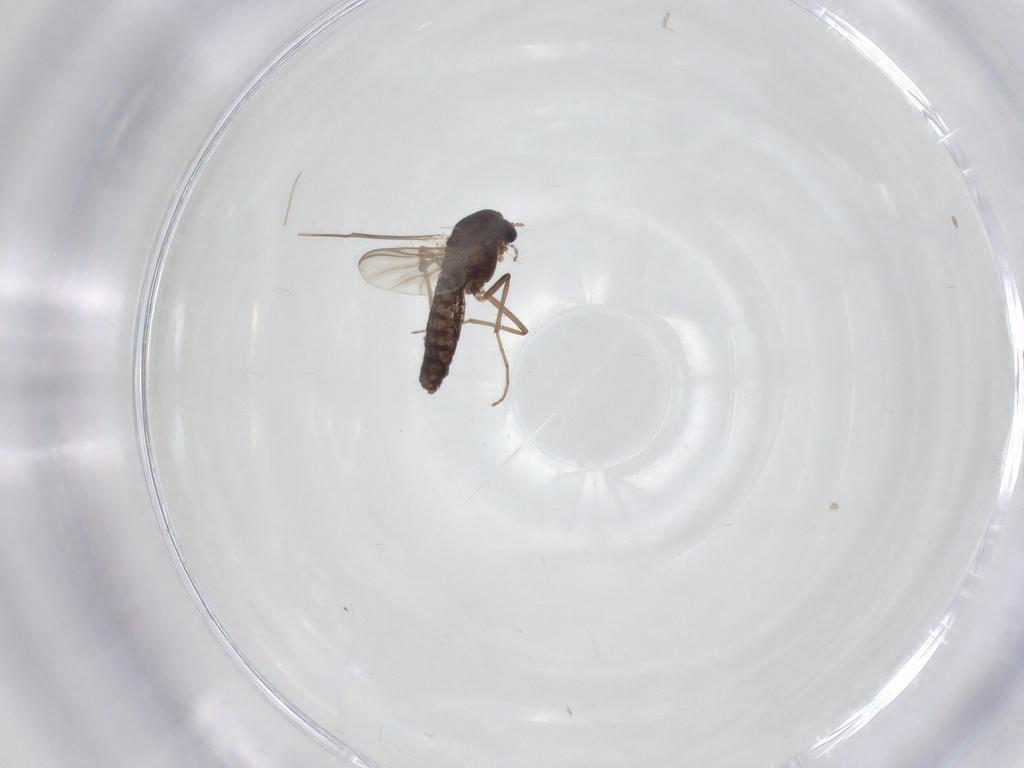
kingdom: Animalia
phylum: Arthropoda
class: Insecta
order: Diptera
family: Chironomidae
